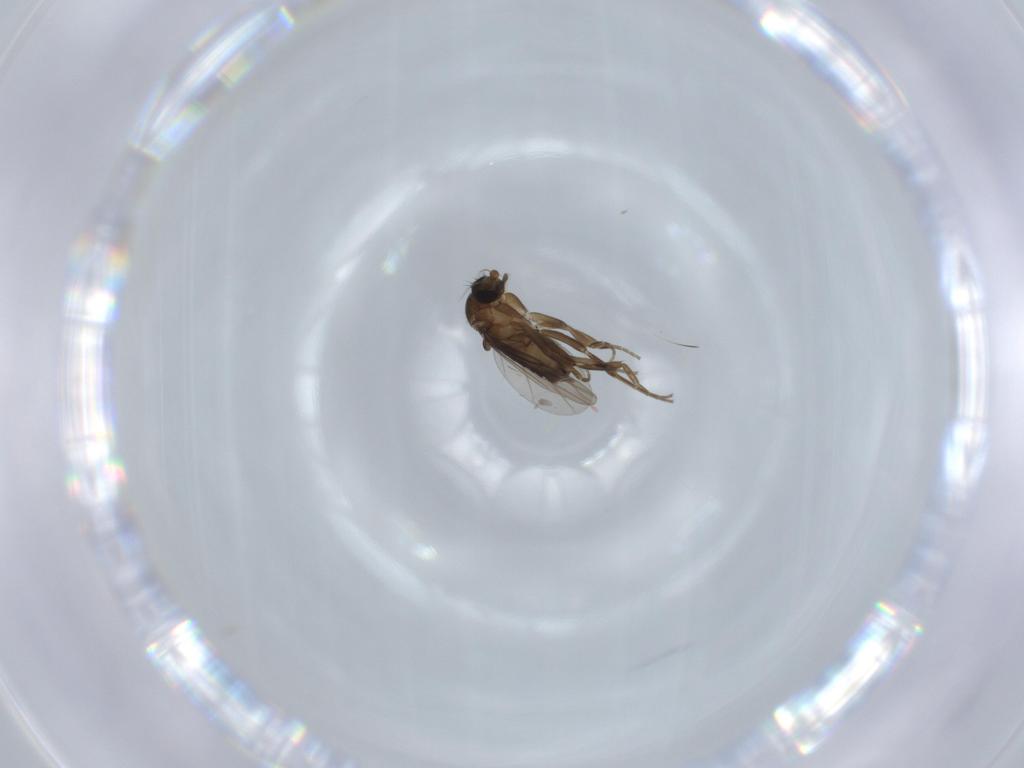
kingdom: Animalia
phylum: Arthropoda
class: Insecta
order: Diptera
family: Phoridae
